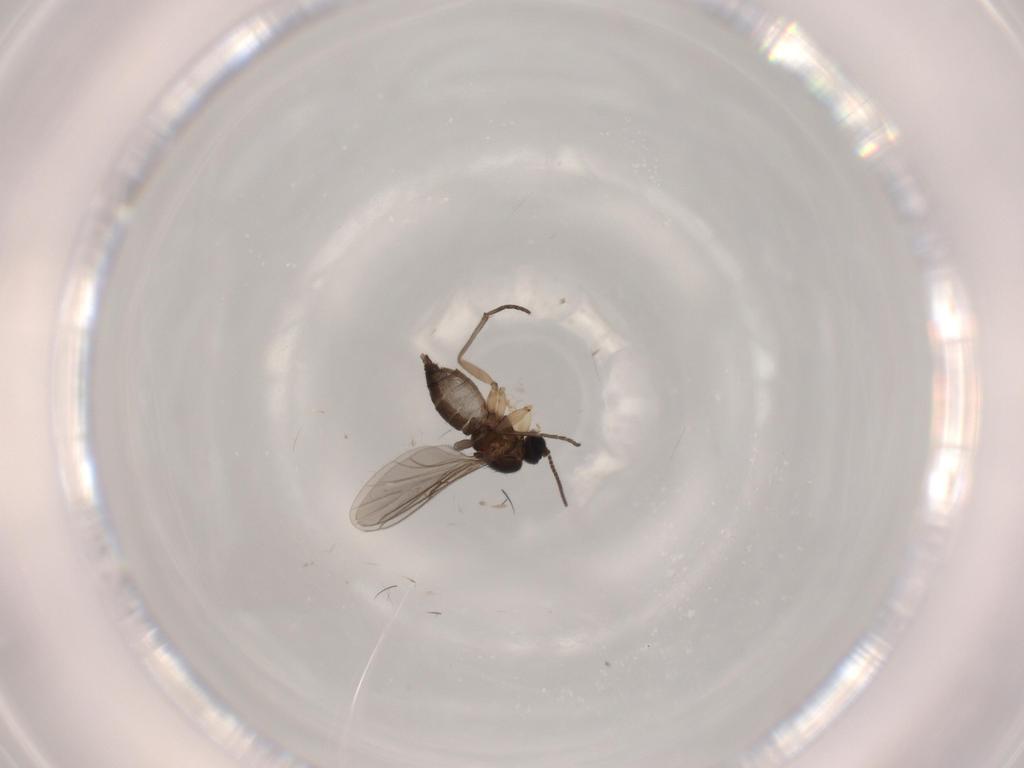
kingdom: Animalia
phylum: Arthropoda
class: Insecta
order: Diptera
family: Sciaridae
